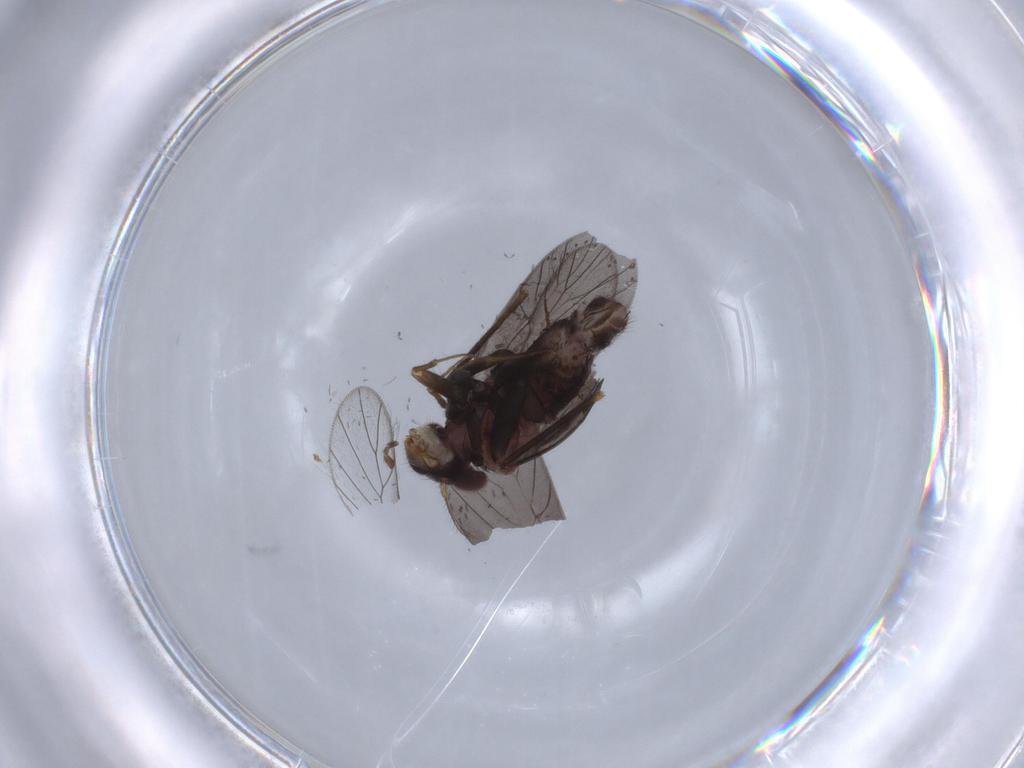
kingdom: Animalia
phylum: Arthropoda
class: Insecta
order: Psocodea
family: Lepidopsocidae
